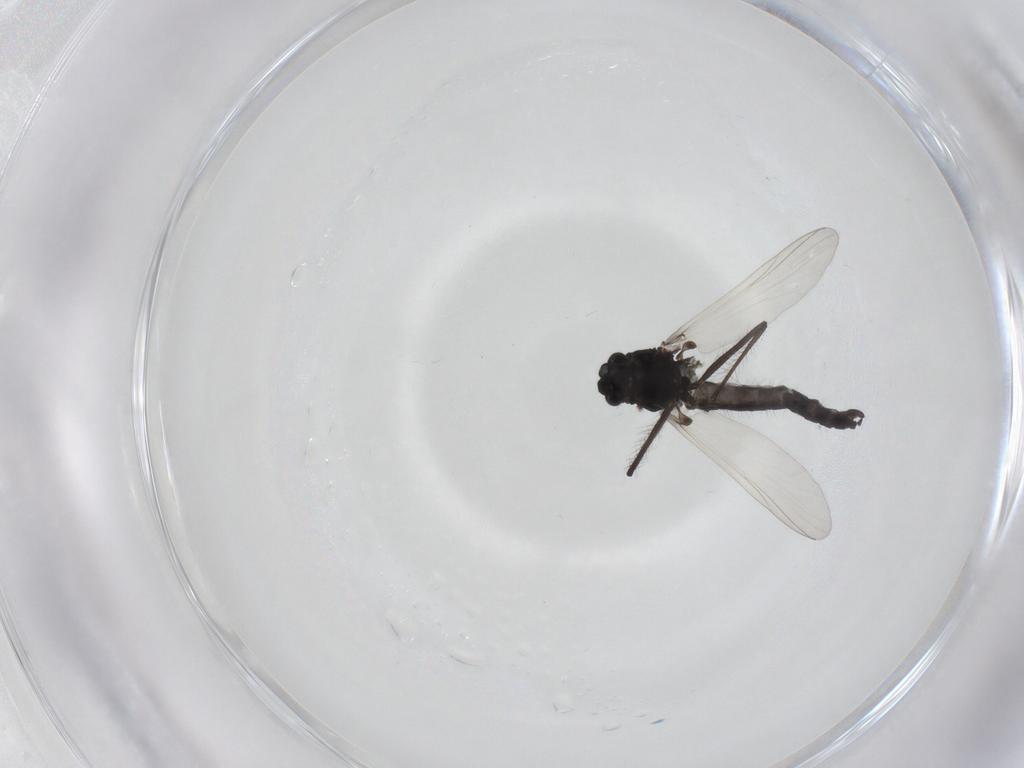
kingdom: Animalia
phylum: Arthropoda
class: Insecta
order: Diptera
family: Chironomidae
